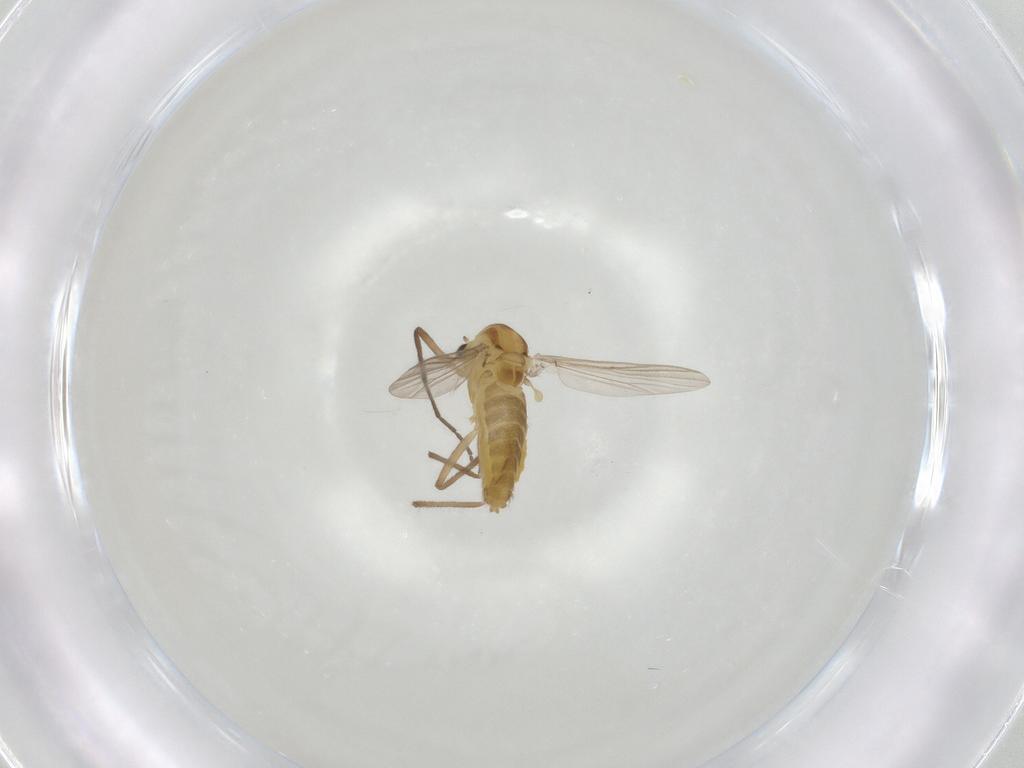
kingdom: Animalia
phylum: Arthropoda
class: Insecta
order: Diptera
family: Chironomidae
